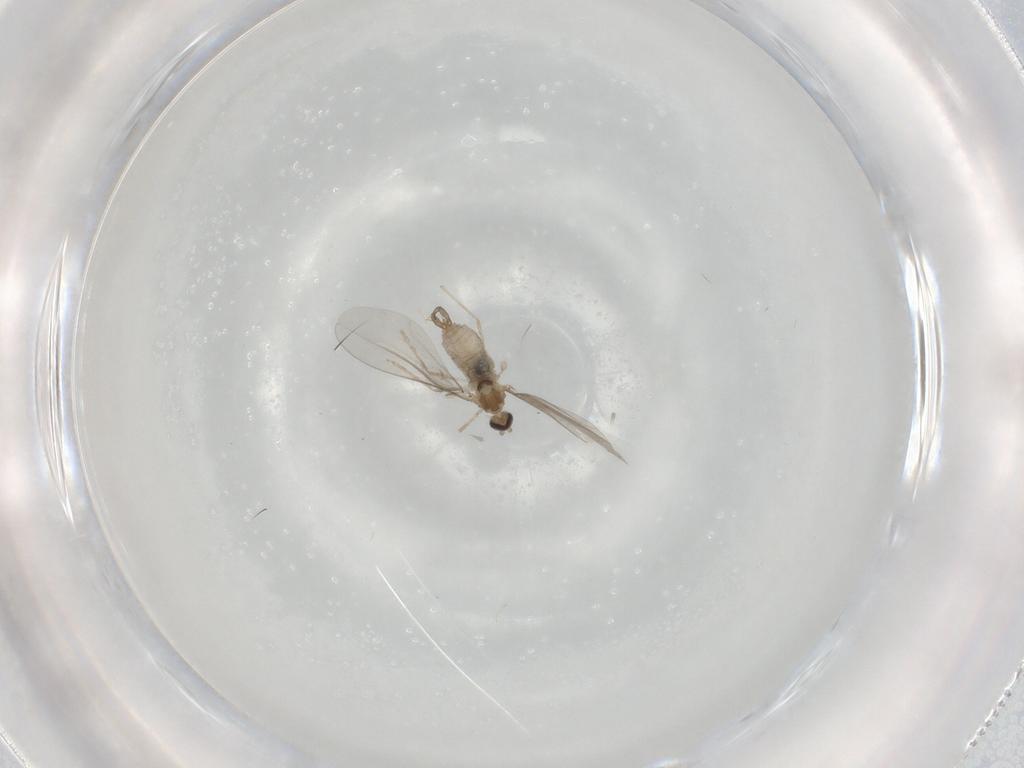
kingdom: Animalia
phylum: Arthropoda
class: Insecta
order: Diptera
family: Cecidomyiidae
